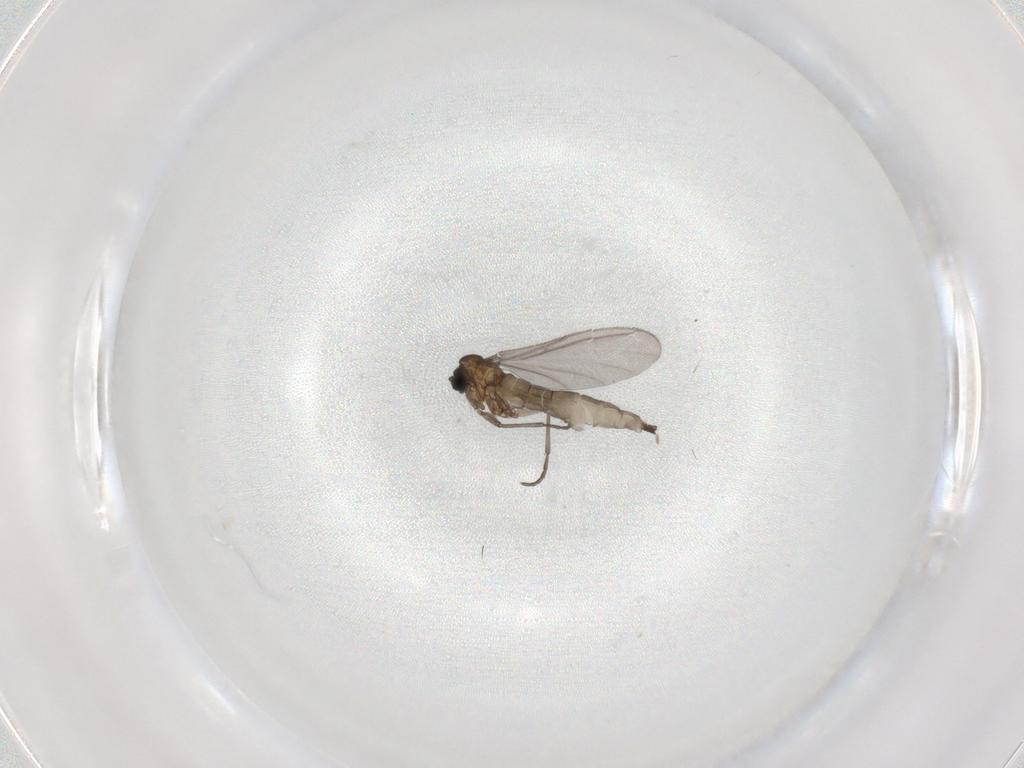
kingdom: Animalia
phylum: Arthropoda
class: Insecta
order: Diptera
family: Sciaridae
